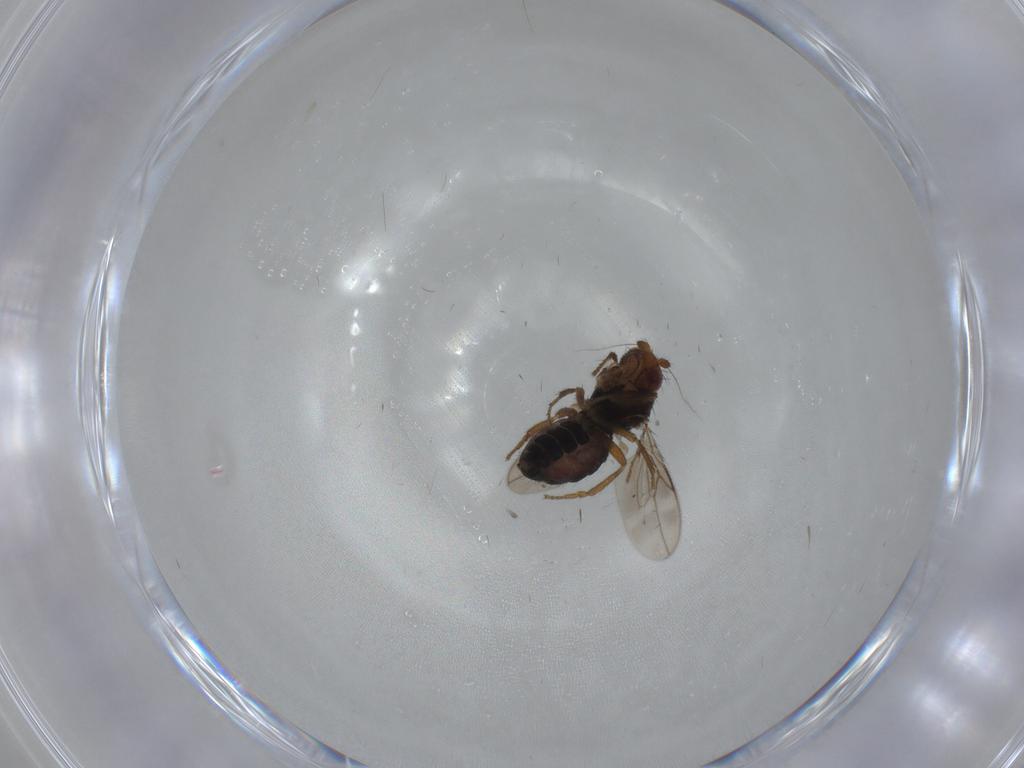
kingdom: Animalia
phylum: Arthropoda
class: Insecta
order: Diptera
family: Sphaeroceridae
